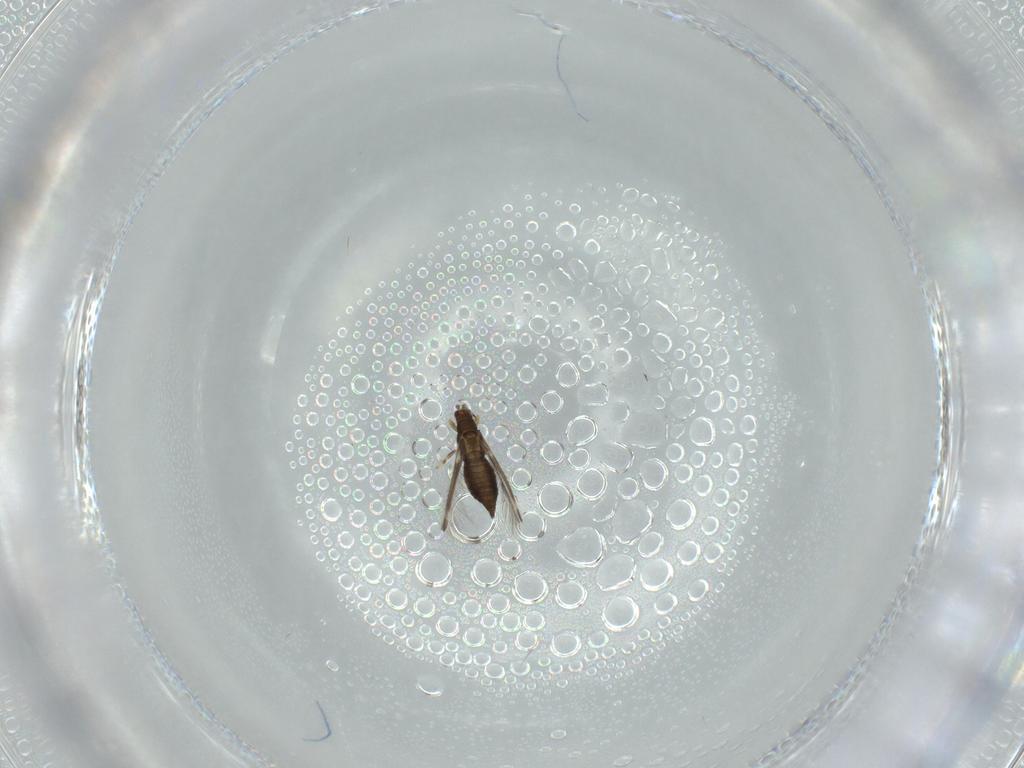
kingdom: Animalia
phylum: Arthropoda
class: Insecta
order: Thysanoptera
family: Thripidae
